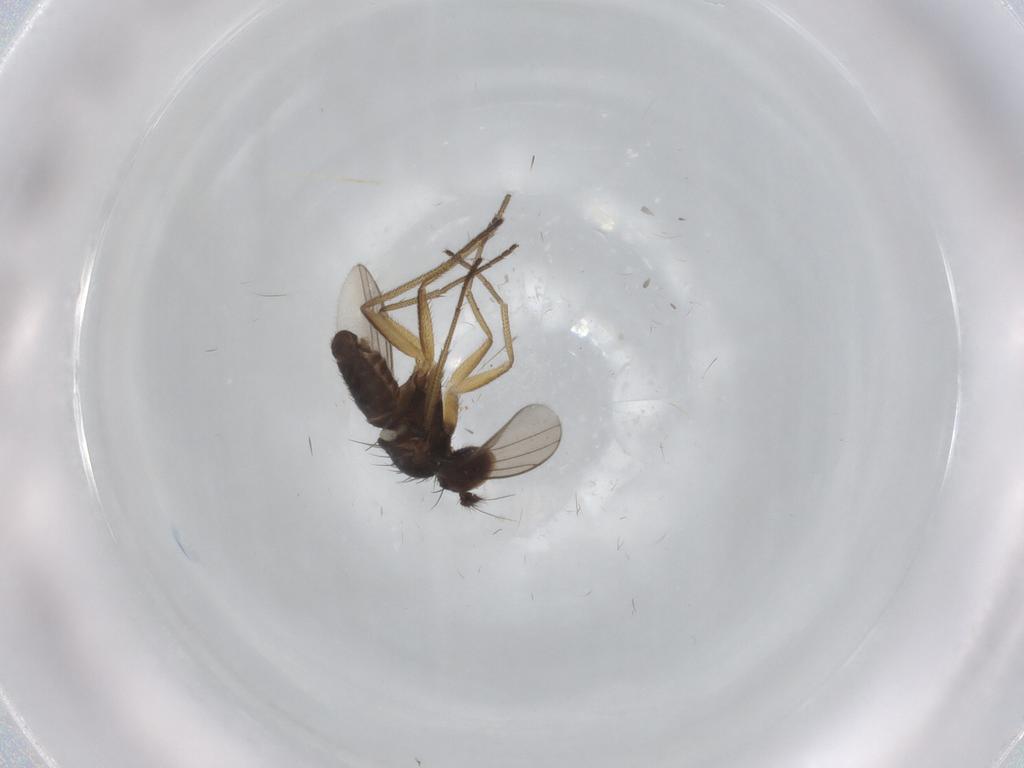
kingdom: Animalia
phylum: Arthropoda
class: Insecta
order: Diptera
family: Dolichopodidae
